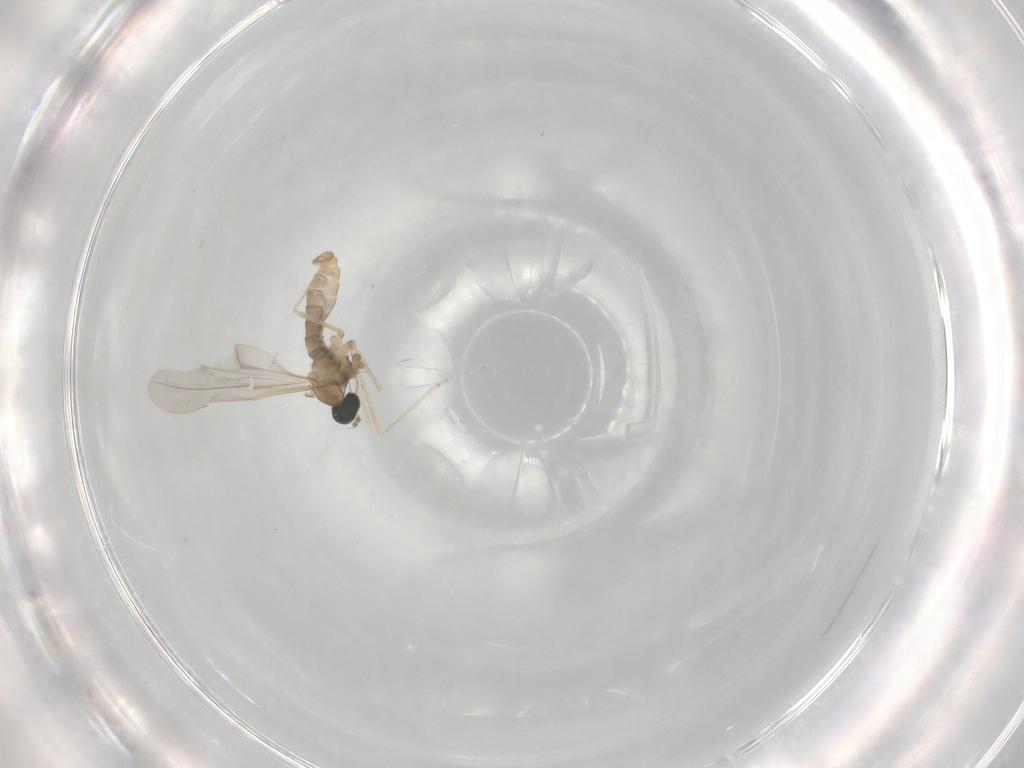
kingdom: Animalia
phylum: Arthropoda
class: Insecta
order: Diptera
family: Cecidomyiidae
